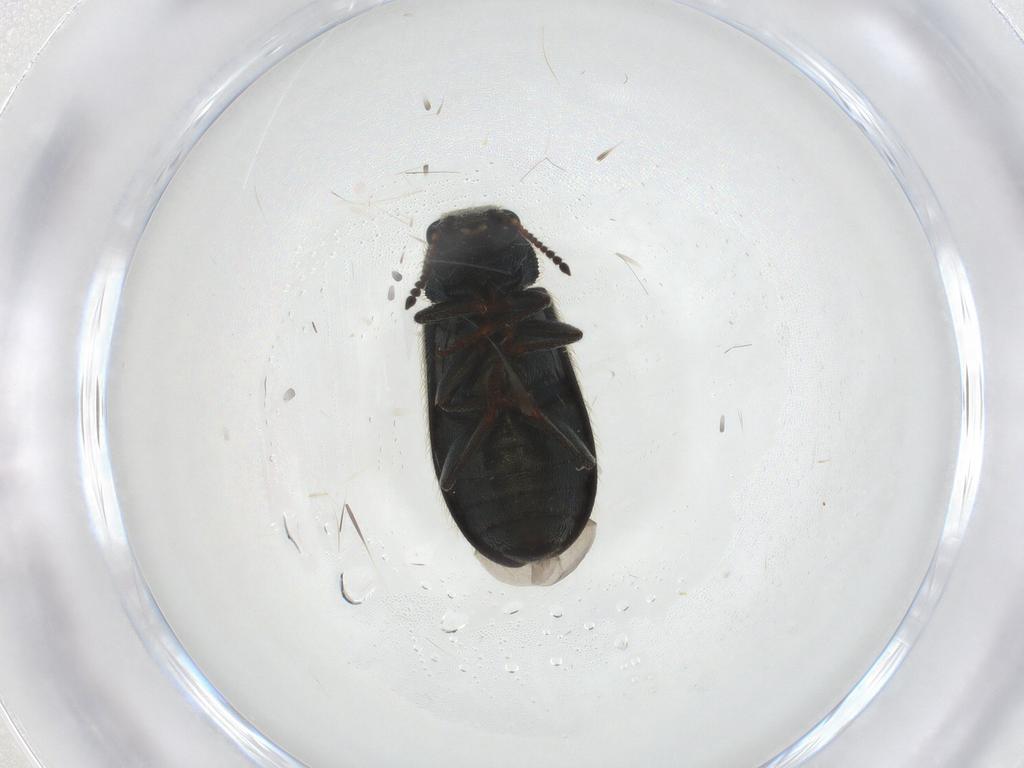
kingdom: Animalia
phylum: Arthropoda
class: Insecta
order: Coleoptera
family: Melyridae
